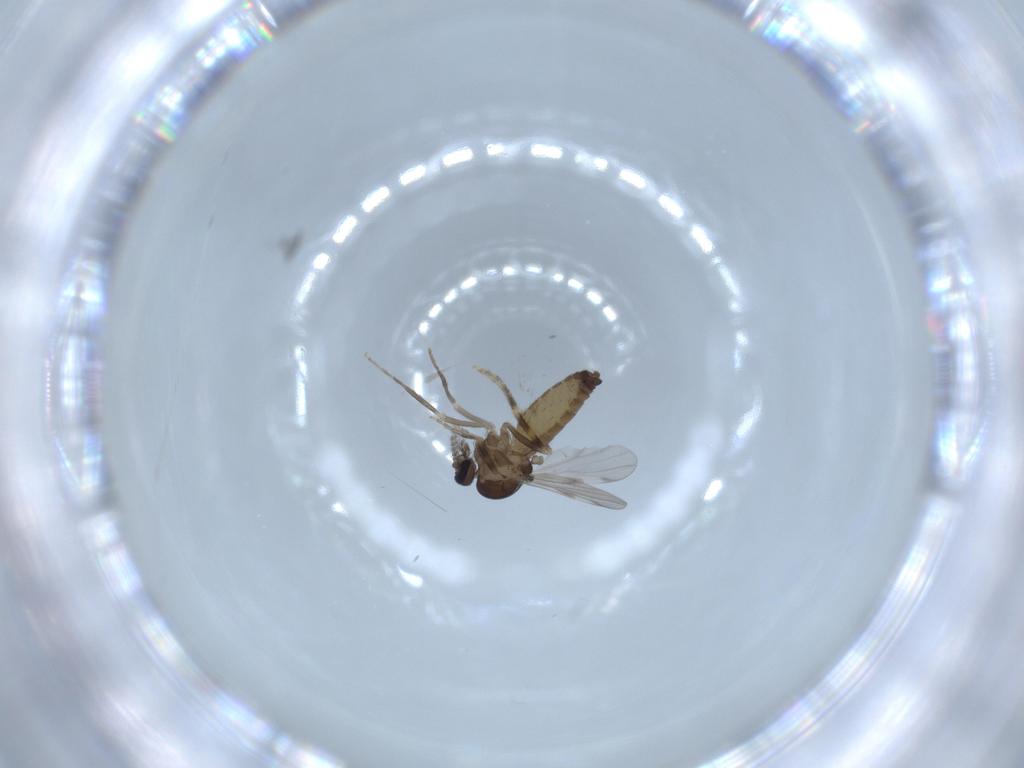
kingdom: Animalia
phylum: Arthropoda
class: Insecta
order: Diptera
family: Ceratopogonidae
